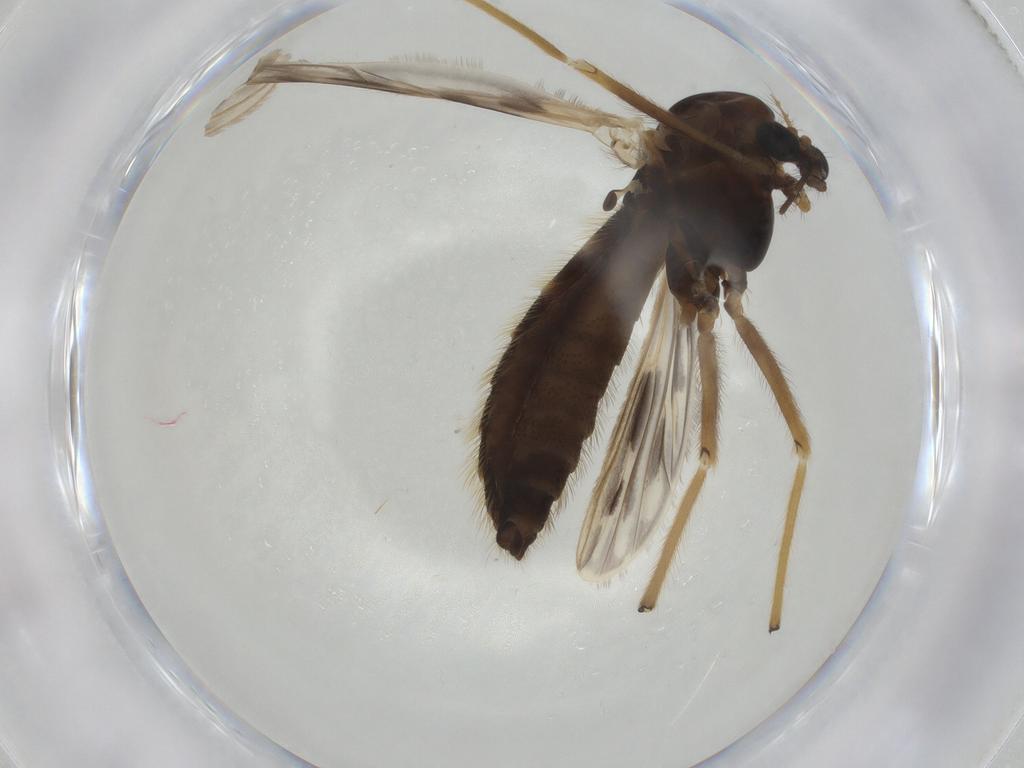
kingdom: Animalia
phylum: Arthropoda
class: Insecta
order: Diptera
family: Chironomidae
